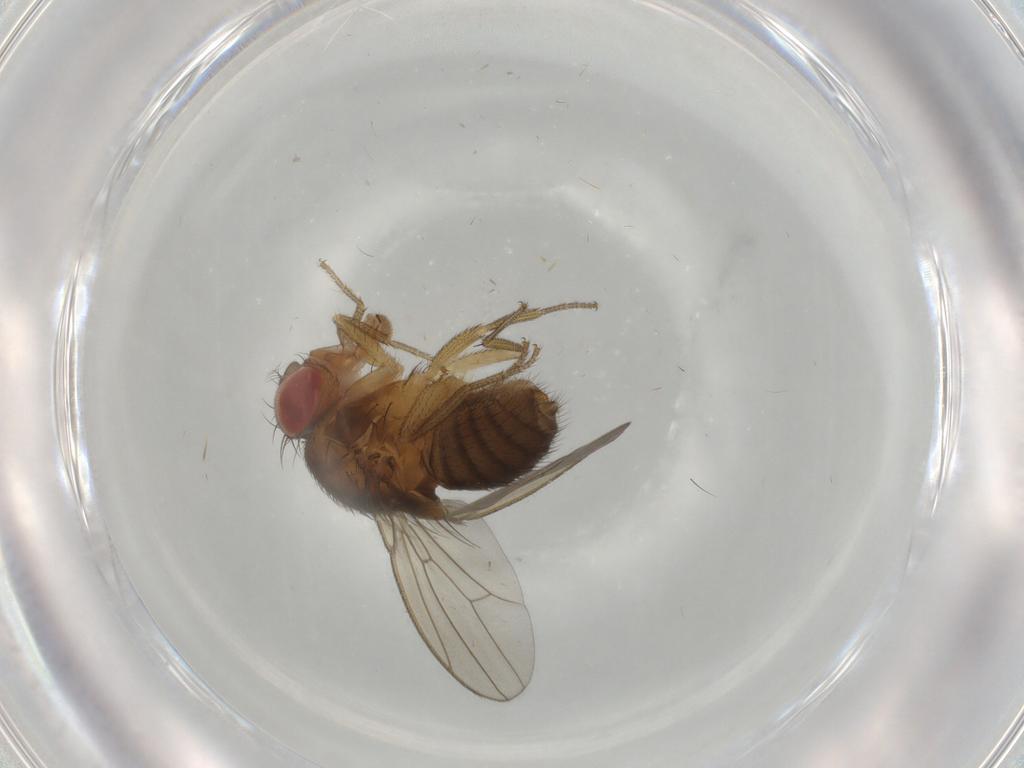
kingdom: Animalia
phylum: Arthropoda
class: Insecta
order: Diptera
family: Drosophilidae
